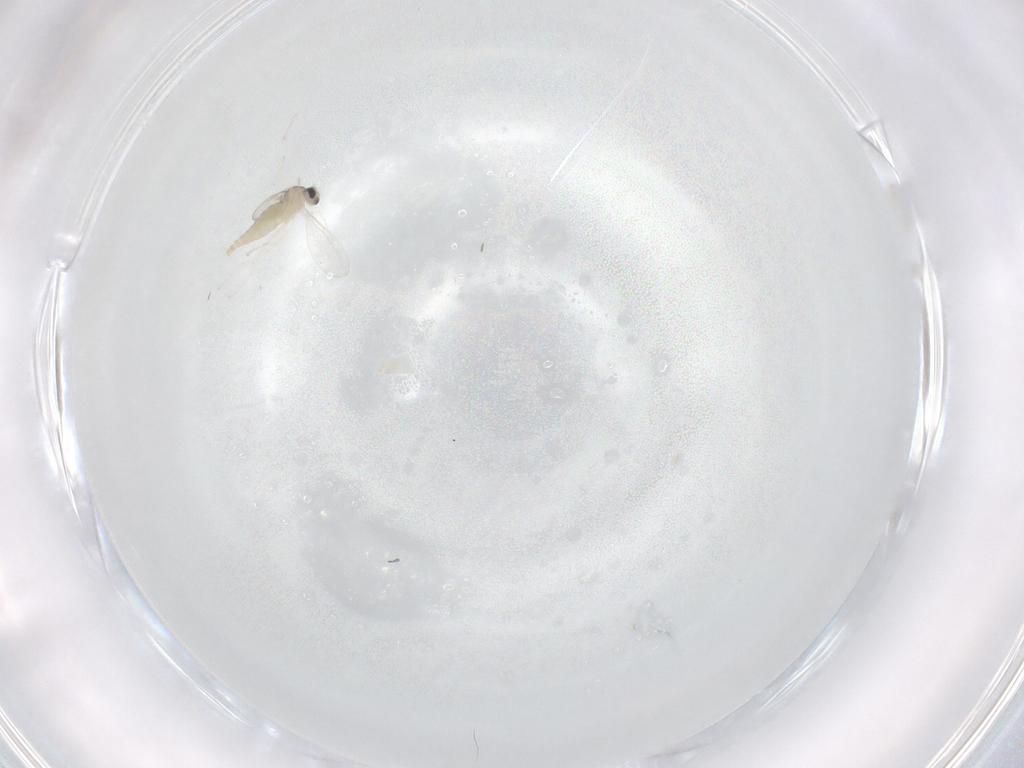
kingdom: Animalia
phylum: Arthropoda
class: Insecta
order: Diptera
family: Cecidomyiidae
